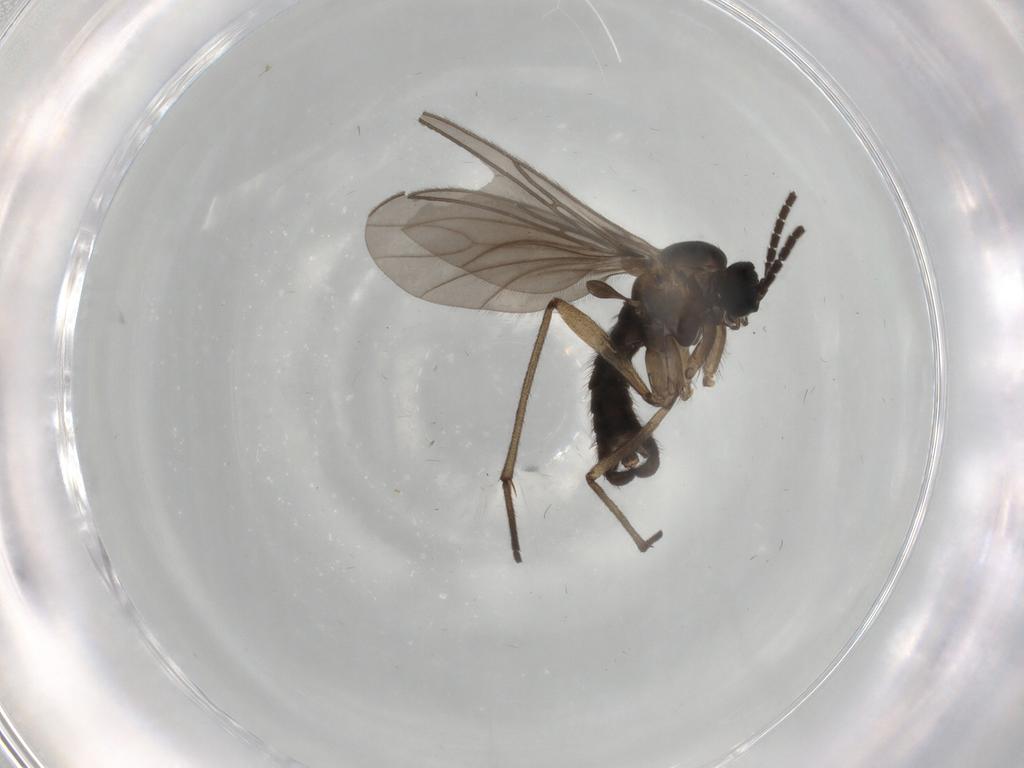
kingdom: Animalia
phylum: Arthropoda
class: Insecta
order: Diptera
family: Sciaridae
